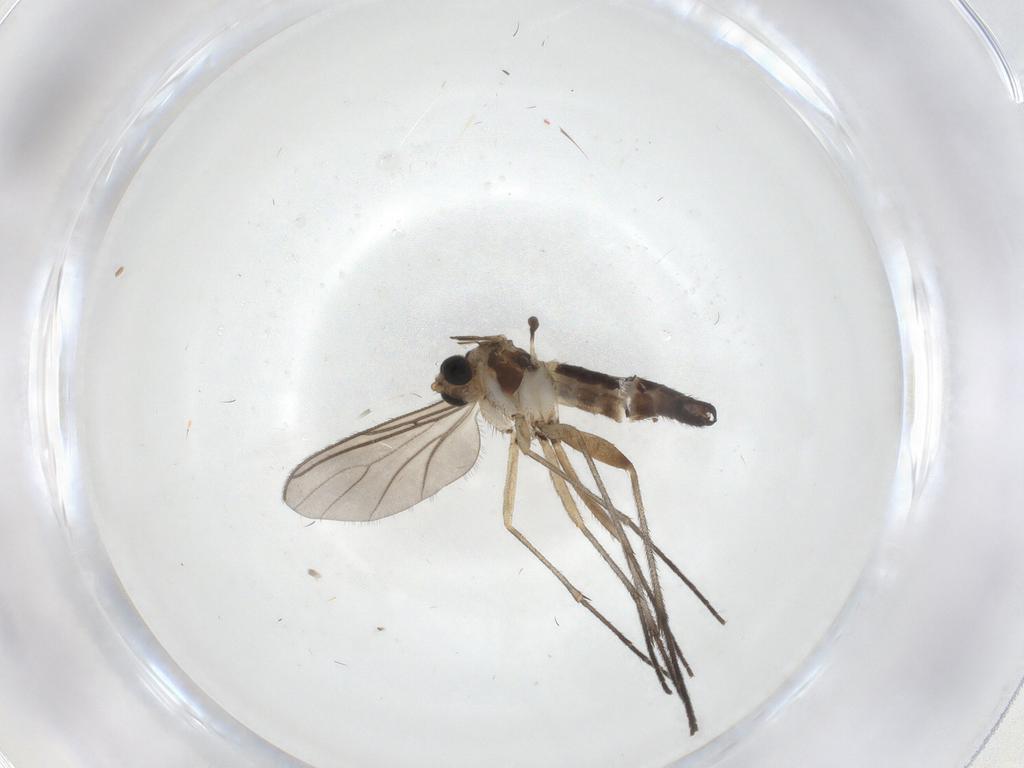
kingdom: Animalia
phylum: Arthropoda
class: Insecta
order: Diptera
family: Sciaridae
